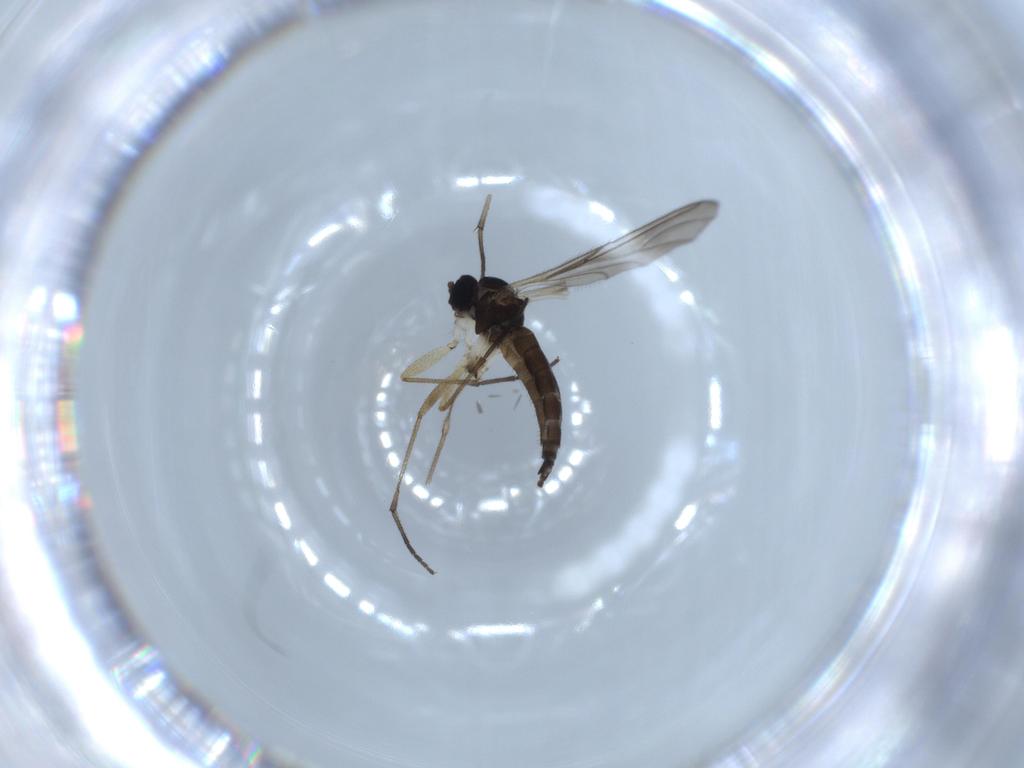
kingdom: Animalia
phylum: Arthropoda
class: Insecta
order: Diptera
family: Sciaridae
